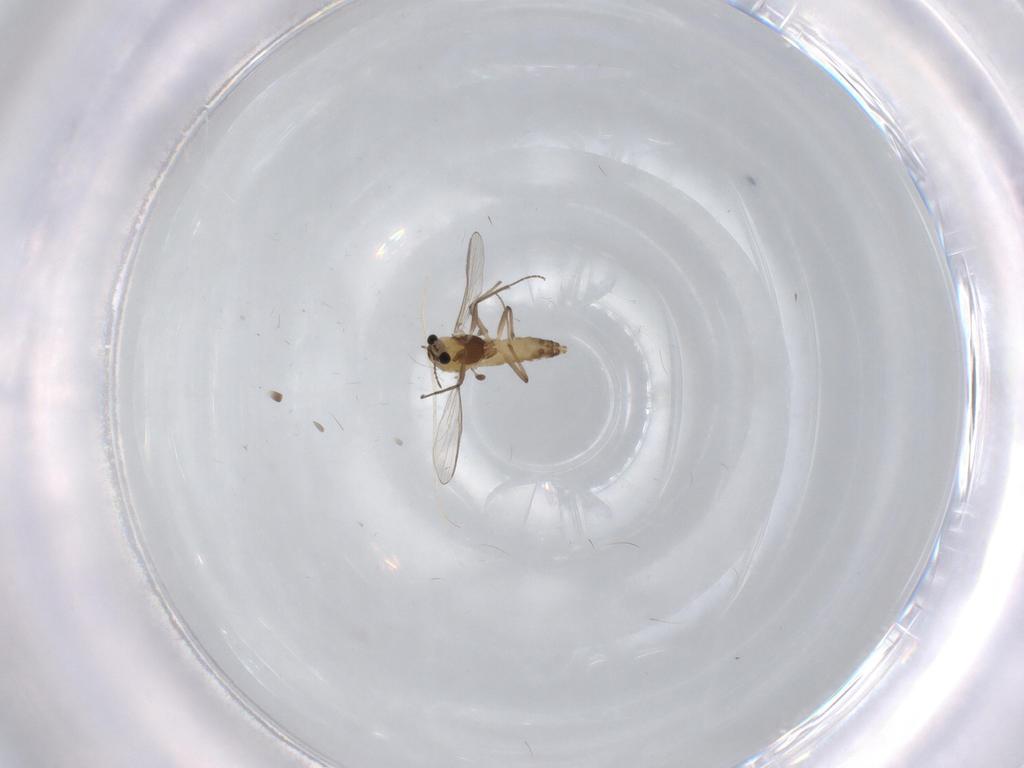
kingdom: Animalia
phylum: Arthropoda
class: Insecta
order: Diptera
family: Chironomidae
